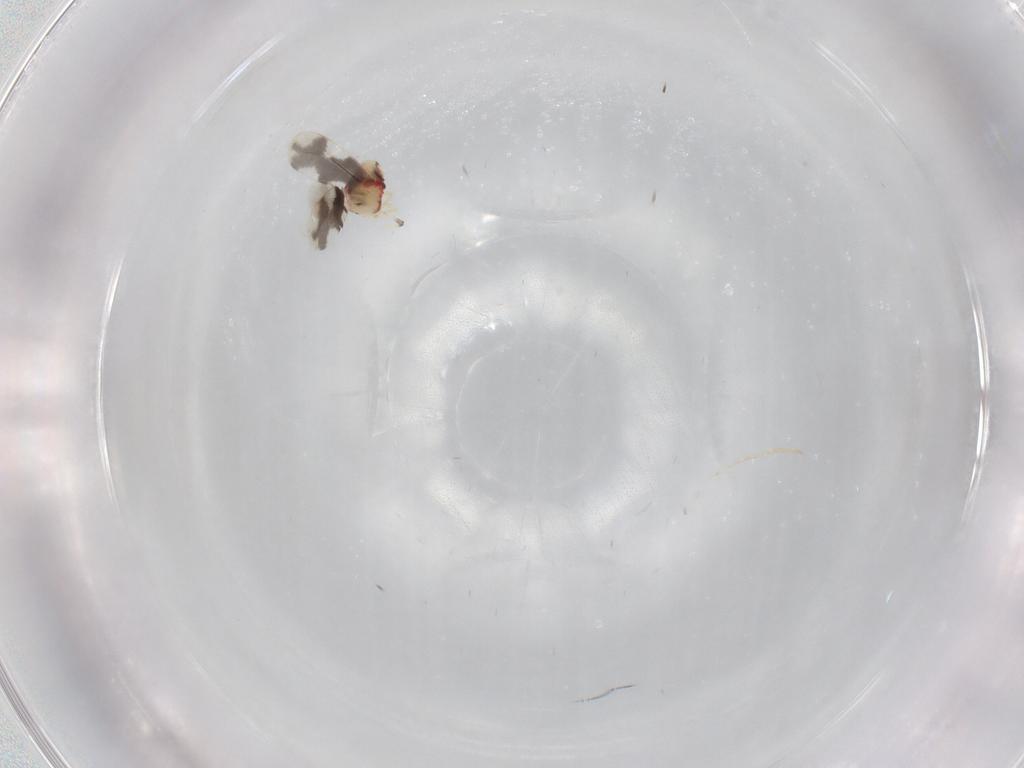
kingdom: Animalia
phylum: Arthropoda
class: Insecta
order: Hemiptera
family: Aleyrodidae
